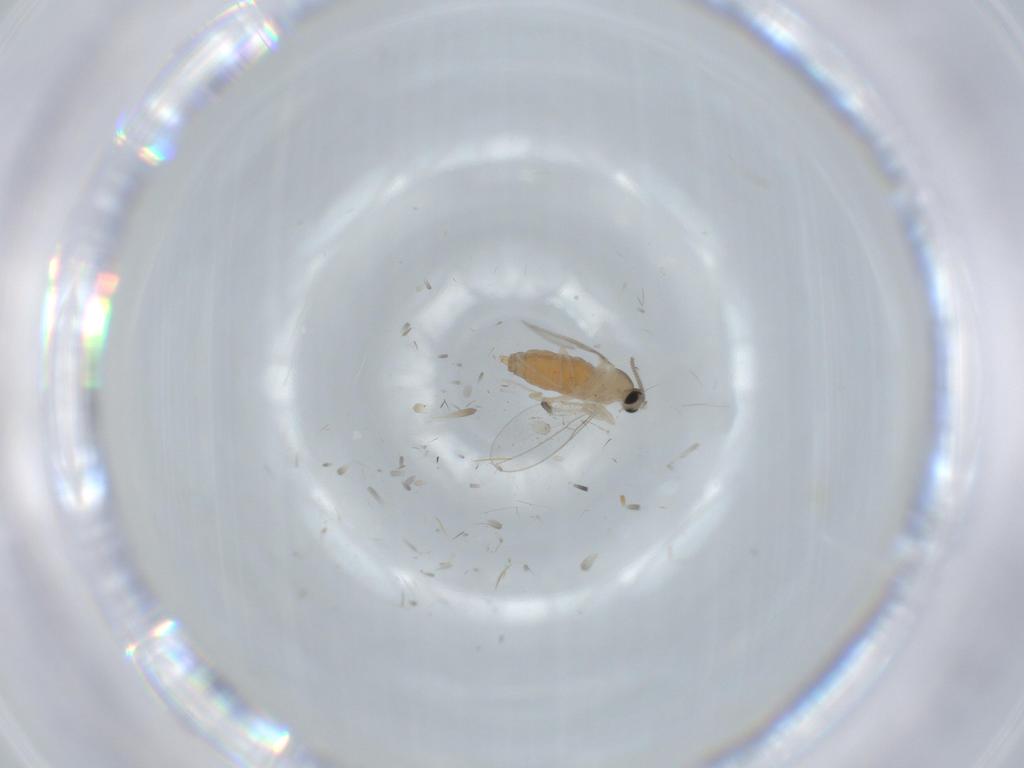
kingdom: Animalia
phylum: Arthropoda
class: Insecta
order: Diptera
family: Cecidomyiidae
